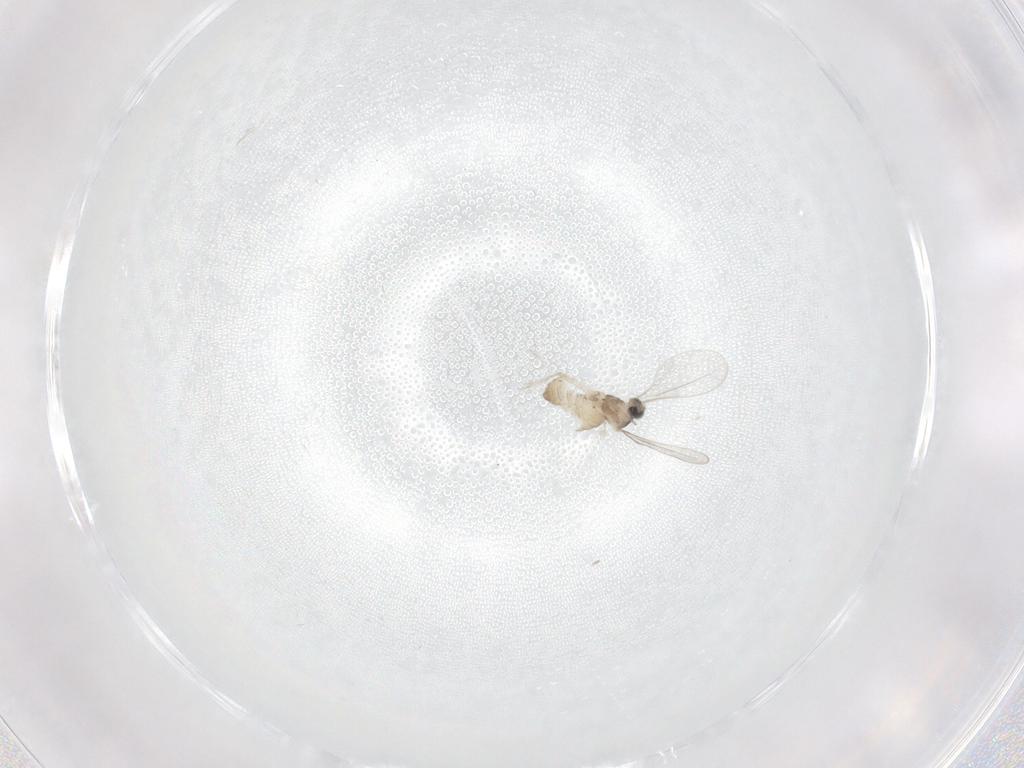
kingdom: Animalia
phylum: Arthropoda
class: Insecta
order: Diptera
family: Cecidomyiidae
